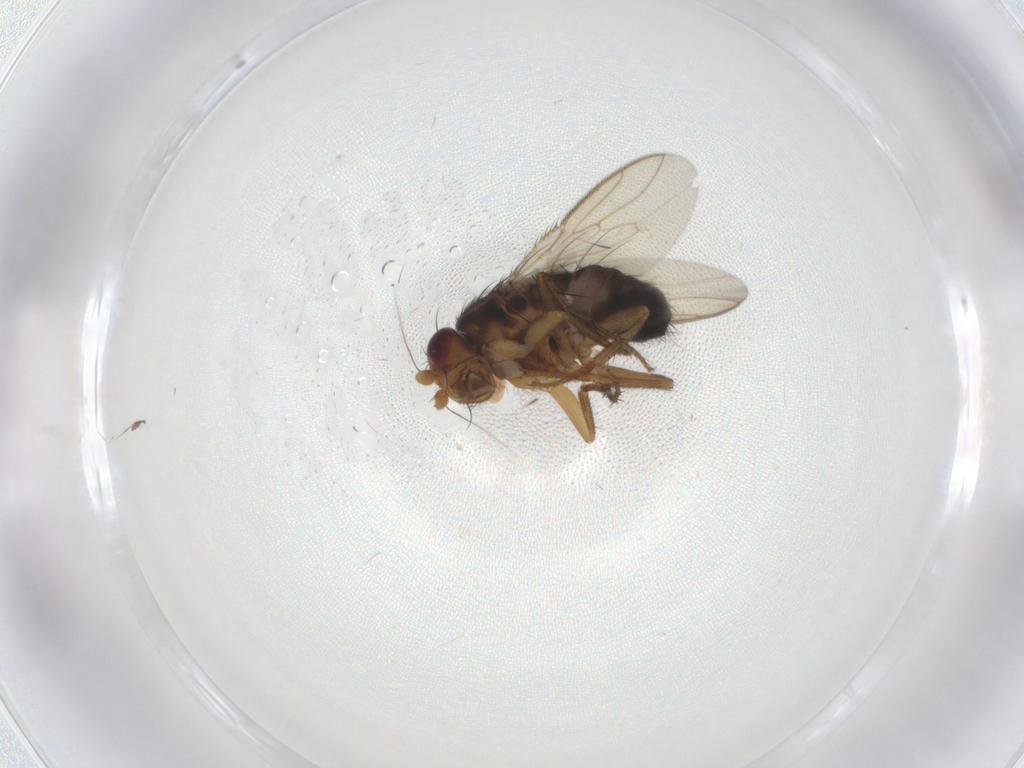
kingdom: Animalia
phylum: Arthropoda
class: Insecta
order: Diptera
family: Sphaeroceridae
